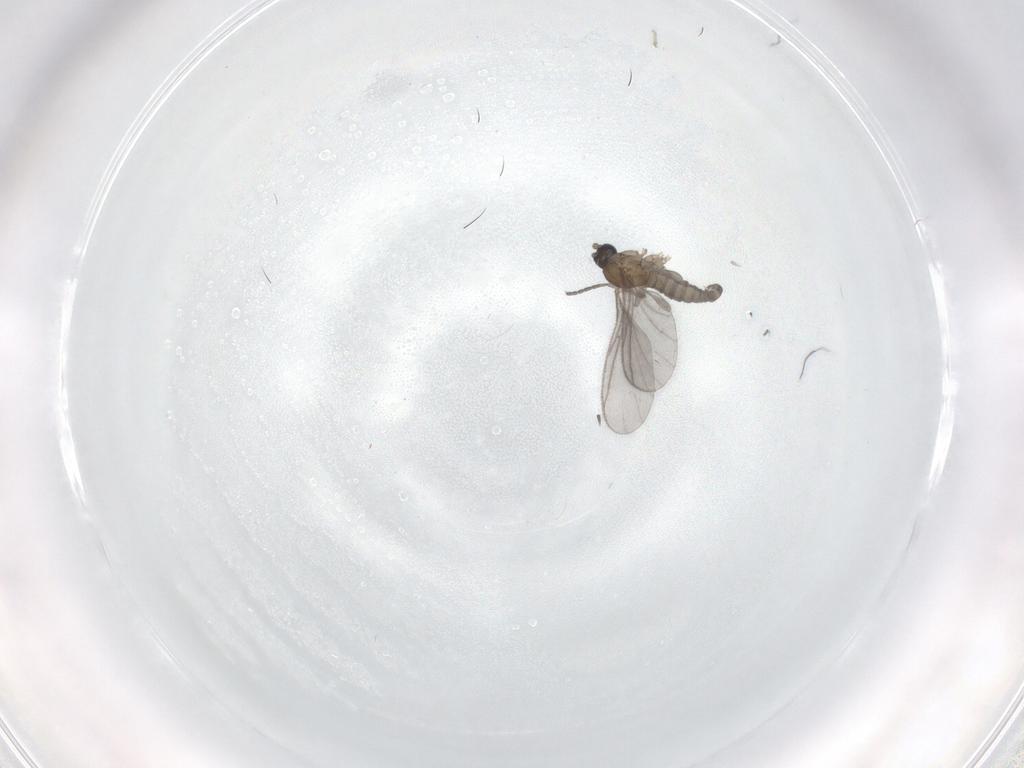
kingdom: Animalia
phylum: Arthropoda
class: Insecta
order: Diptera
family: Sciaridae
